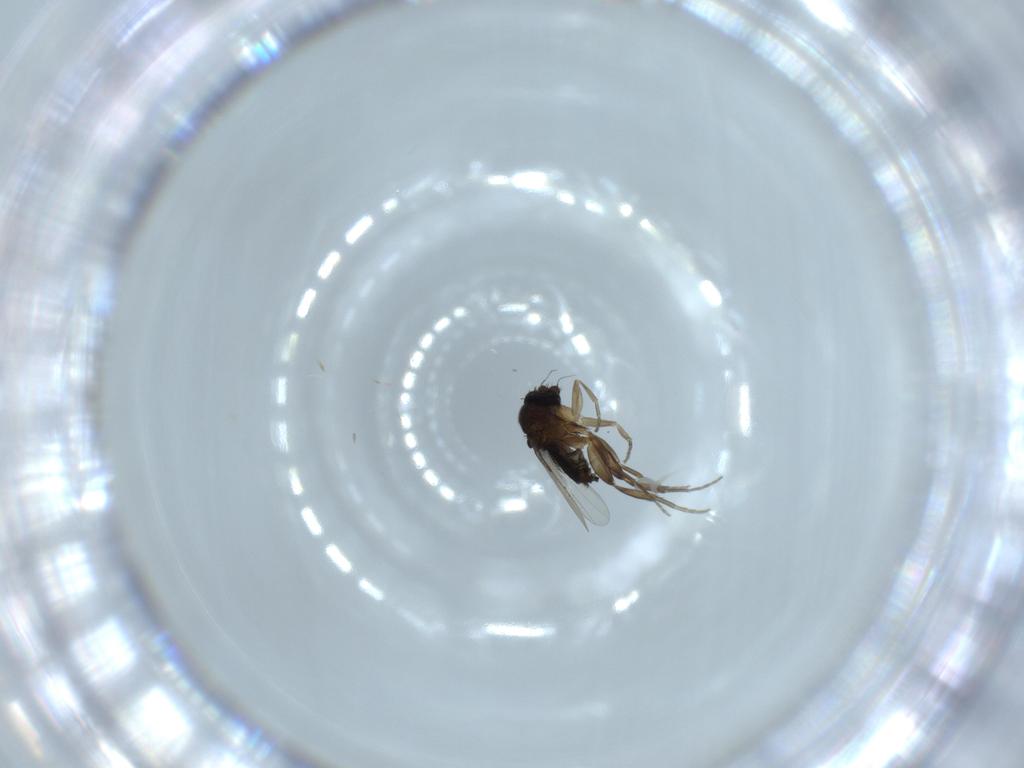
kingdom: Animalia
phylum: Arthropoda
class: Insecta
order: Diptera
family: Phoridae
